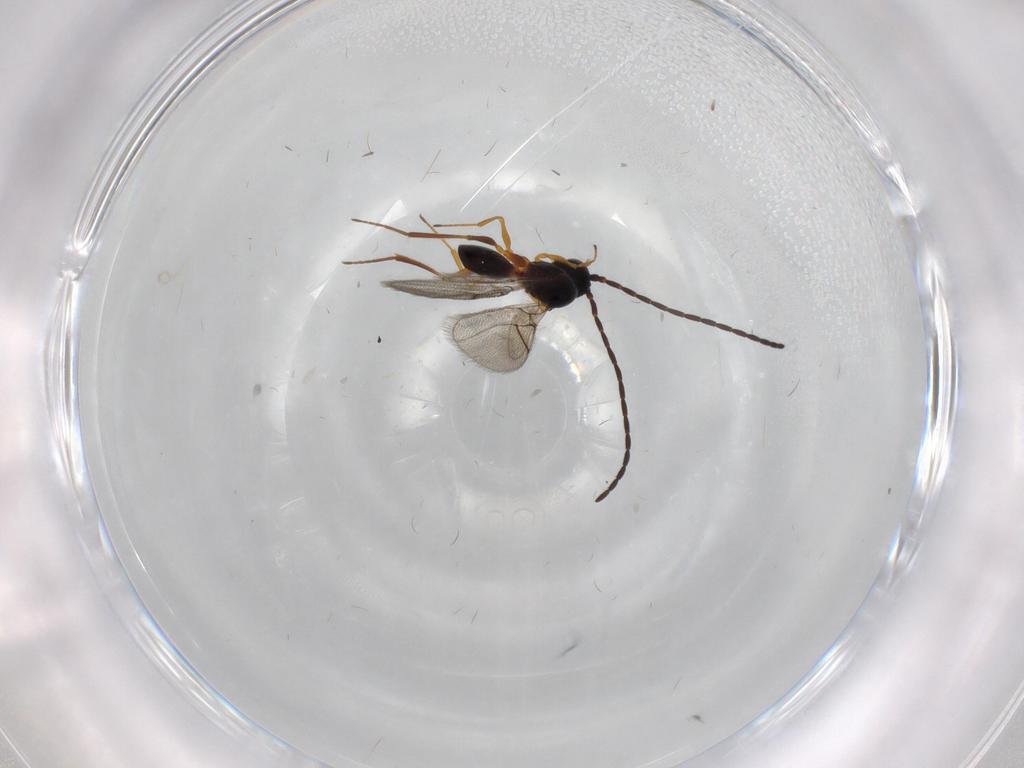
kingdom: Animalia
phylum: Arthropoda
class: Insecta
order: Hymenoptera
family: Figitidae
